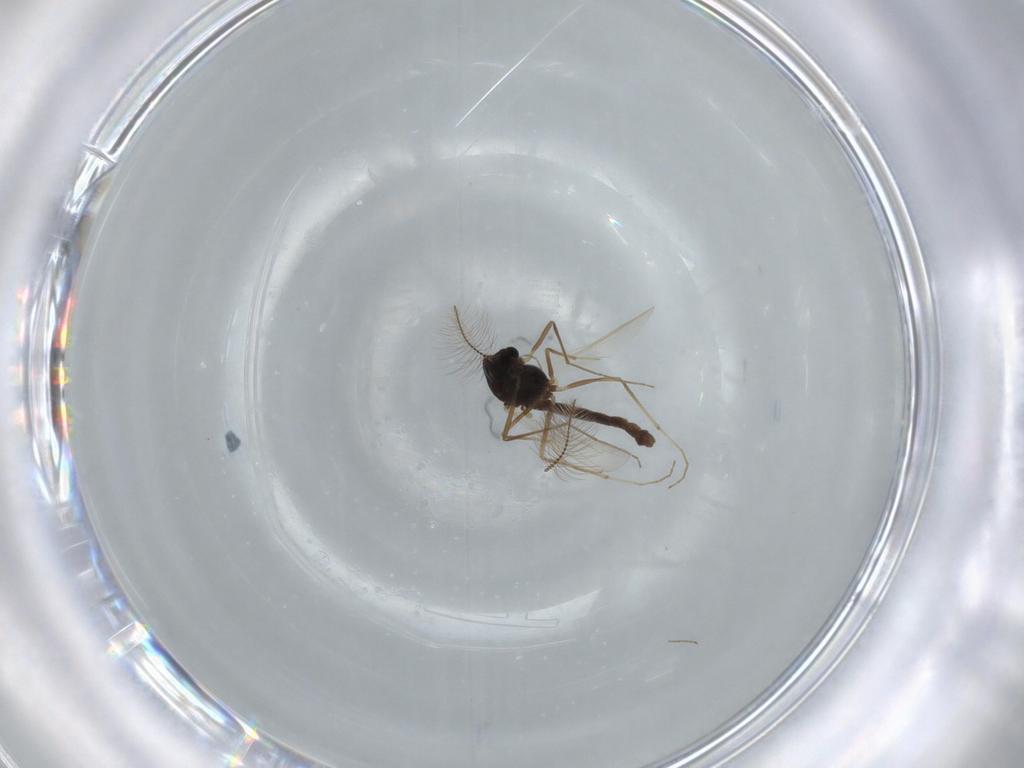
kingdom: Animalia
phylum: Arthropoda
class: Insecta
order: Diptera
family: Chironomidae
